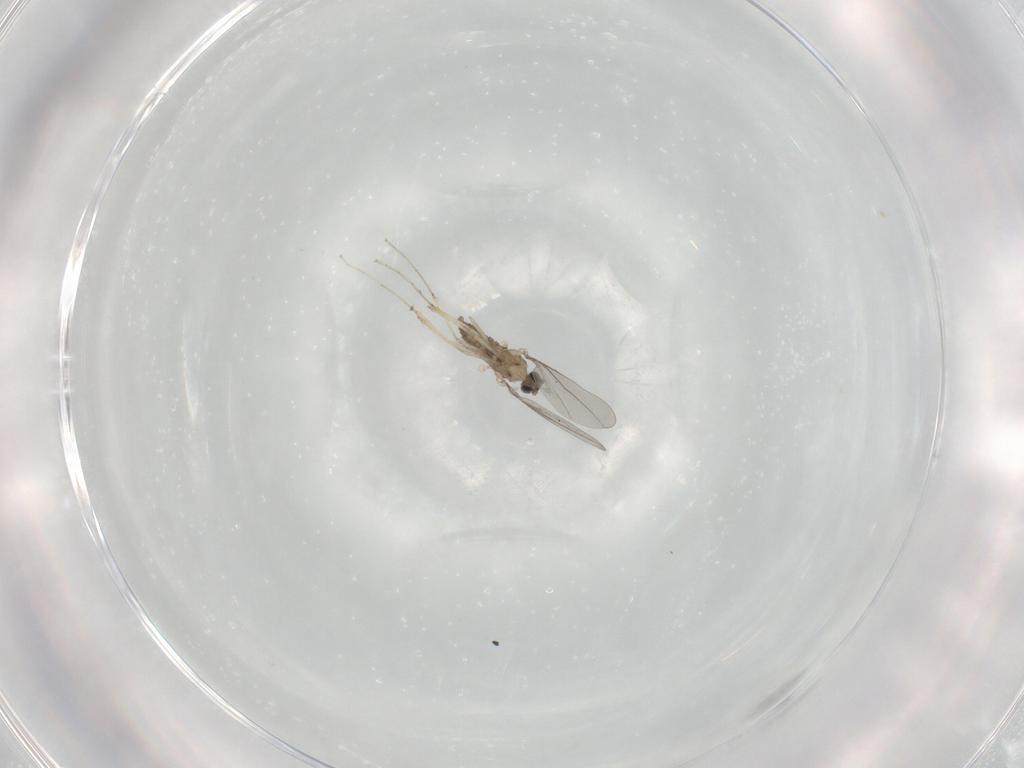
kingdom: Animalia
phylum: Arthropoda
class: Insecta
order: Diptera
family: Cecidomyiidae
